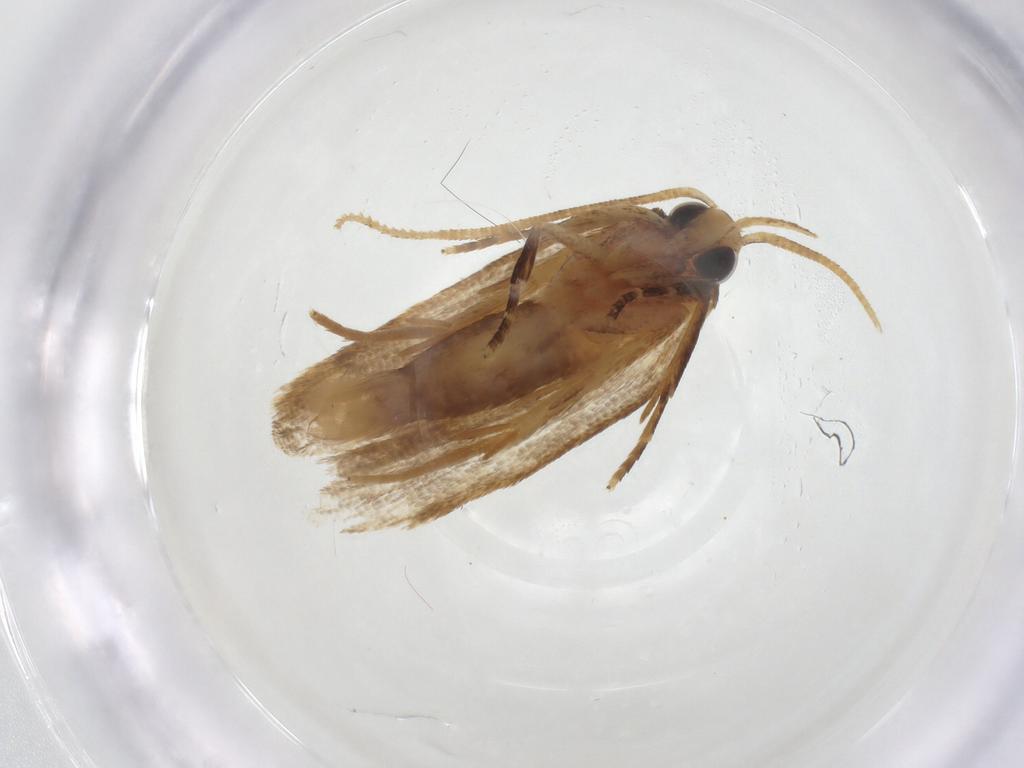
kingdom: Animalia
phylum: Arthropoda
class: Insecta
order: Lepidoptera
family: Oecophoridae
